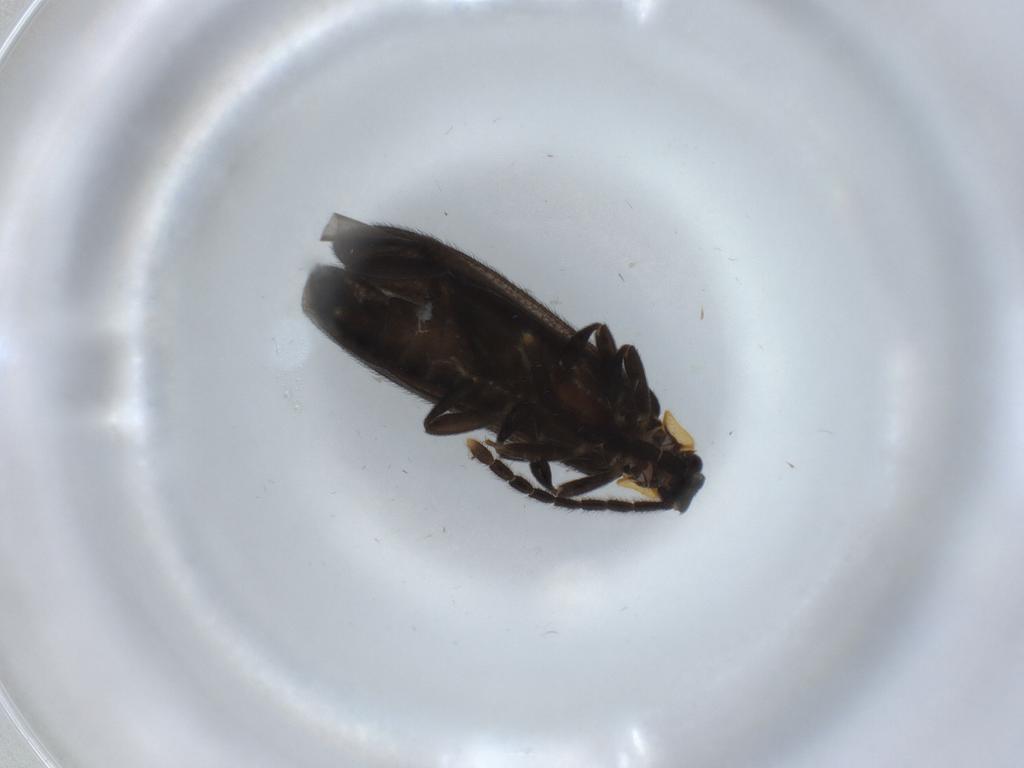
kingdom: Animalia
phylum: Arthropoda
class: Insecta
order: Coleoptera
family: Lycidae
